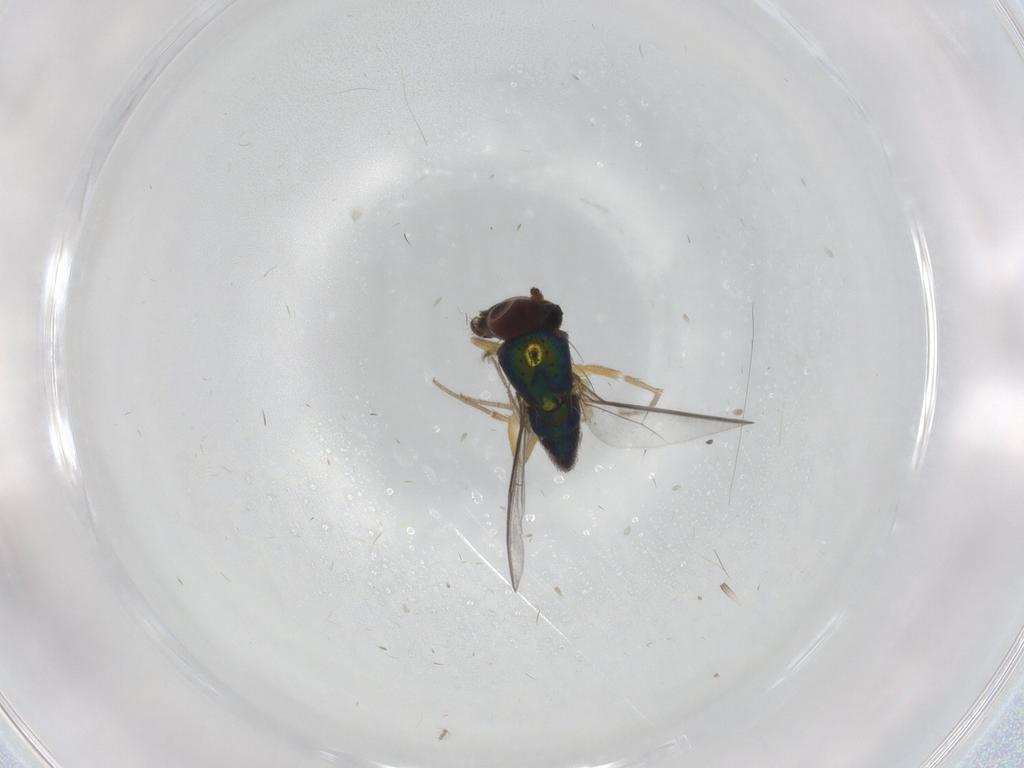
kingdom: Animalia
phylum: Arthropoda
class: Insecta
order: Diptera
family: Dolichopodidae
